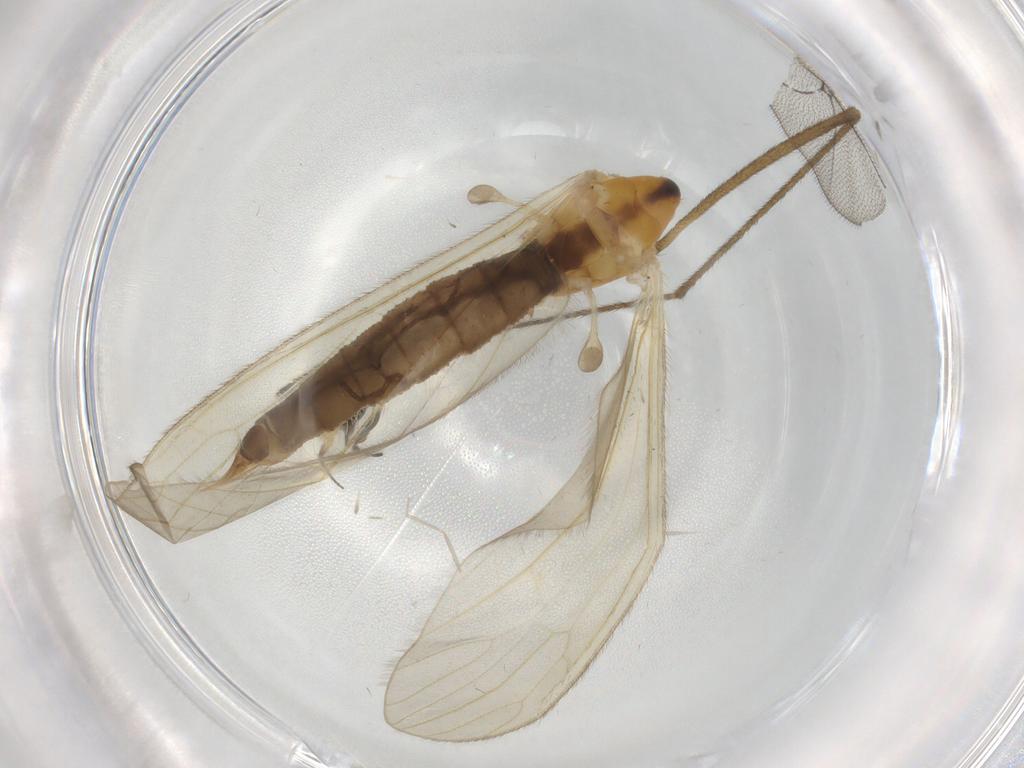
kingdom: Animalia
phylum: Arthropoda
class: Insecta
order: Diptera
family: Limoniidae
